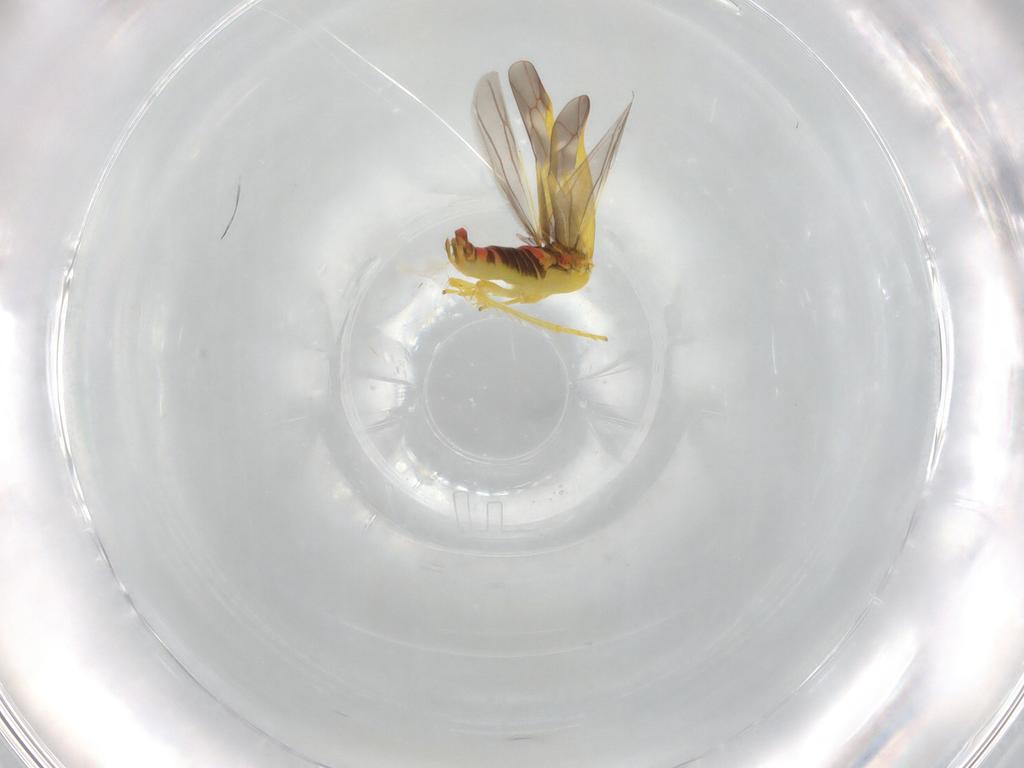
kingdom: Animalia
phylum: Arthropoda
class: Insecta
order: Hemiptera
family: Cicadellidae
